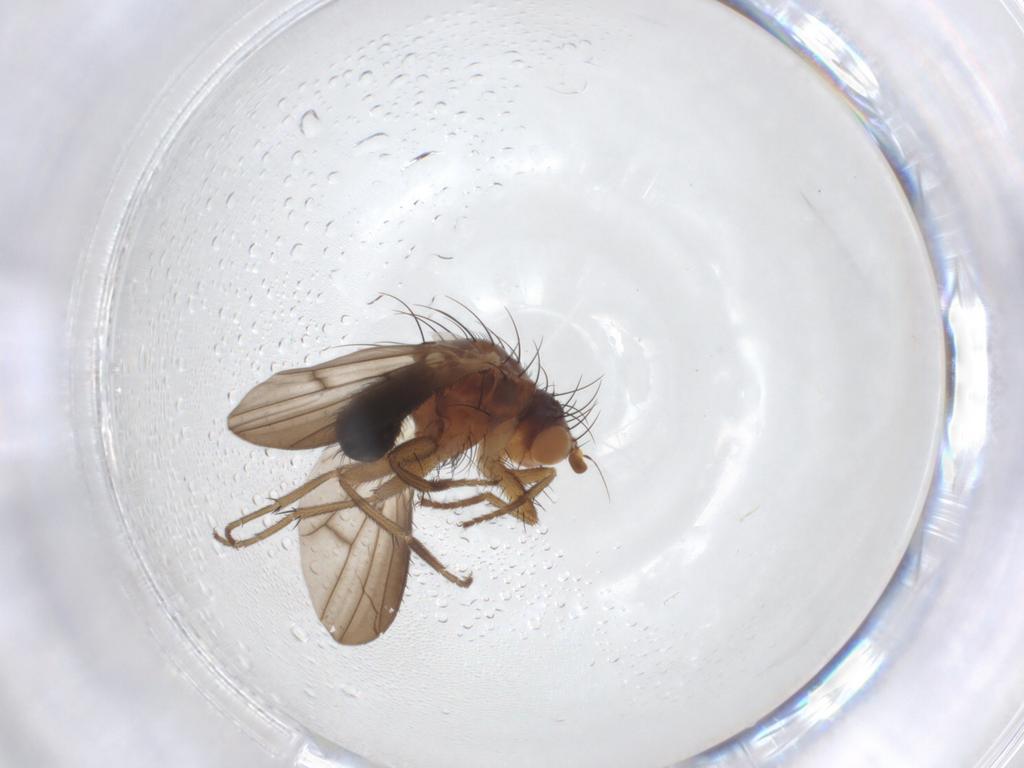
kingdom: Animalia
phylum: Arthropoda
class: Insecta
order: Diptera
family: Heleomyzidae
